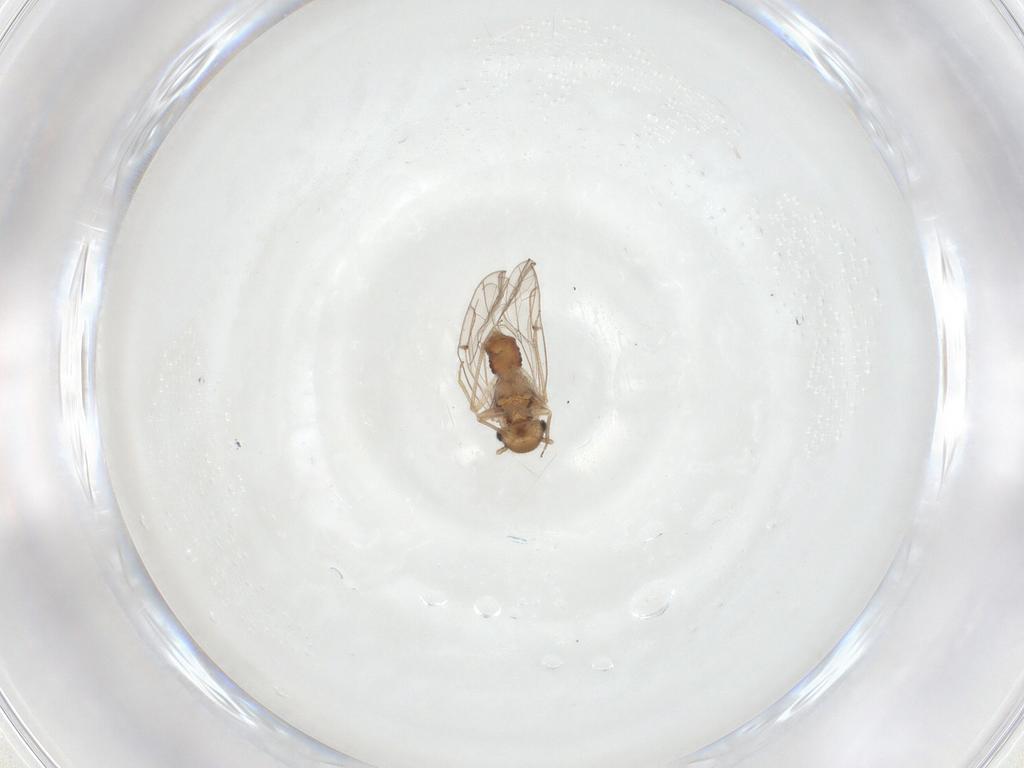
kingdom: Animalia
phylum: Arthropoda
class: Insecta
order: Psocodea
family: Ectopsocidae
